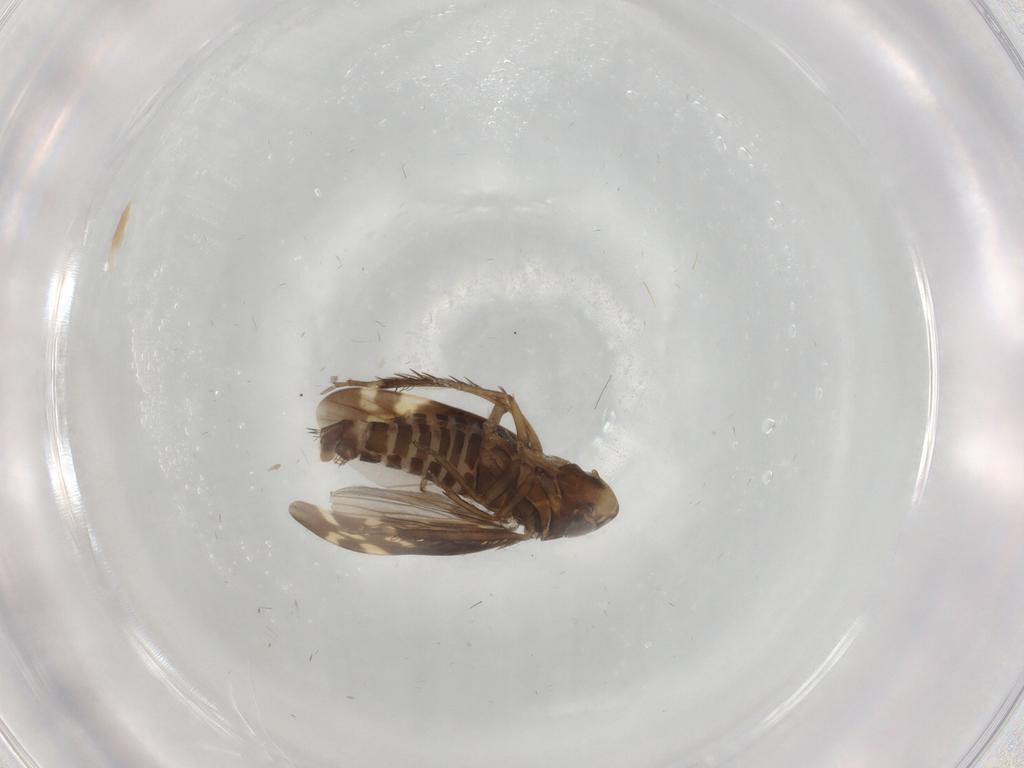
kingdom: Animalia
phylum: Arthropoda
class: Insecta
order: Hemiptera
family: Cicadellidae
